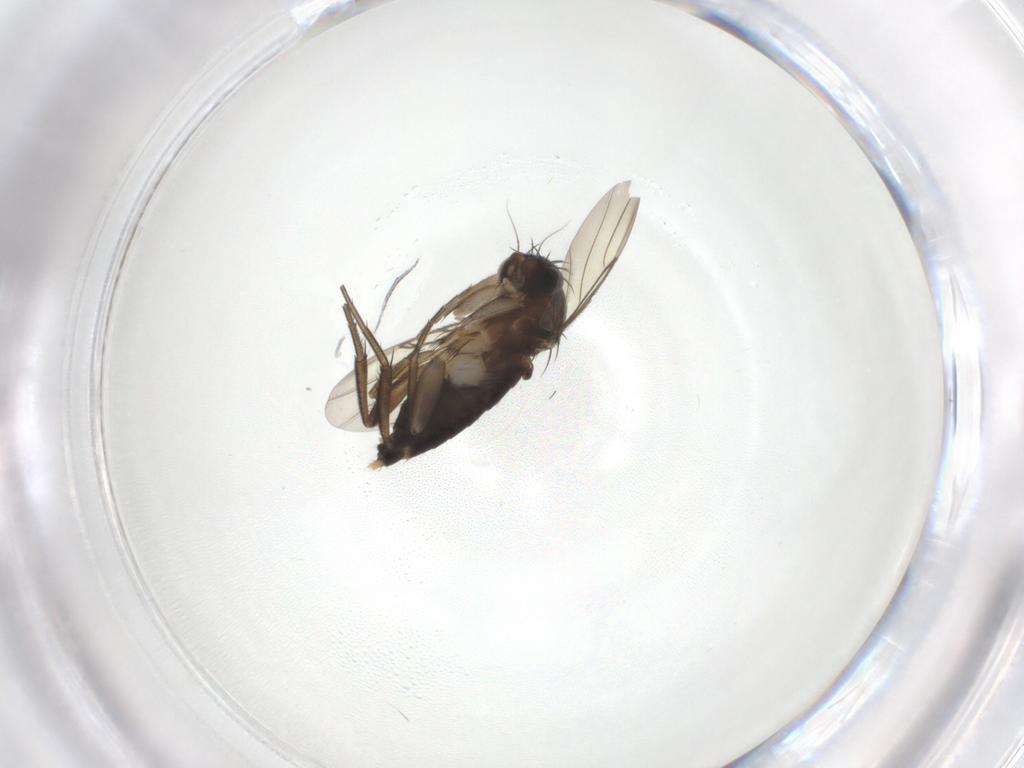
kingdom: Animalia
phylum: Arthropoda
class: Insecta
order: Diptera
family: Phoridae
